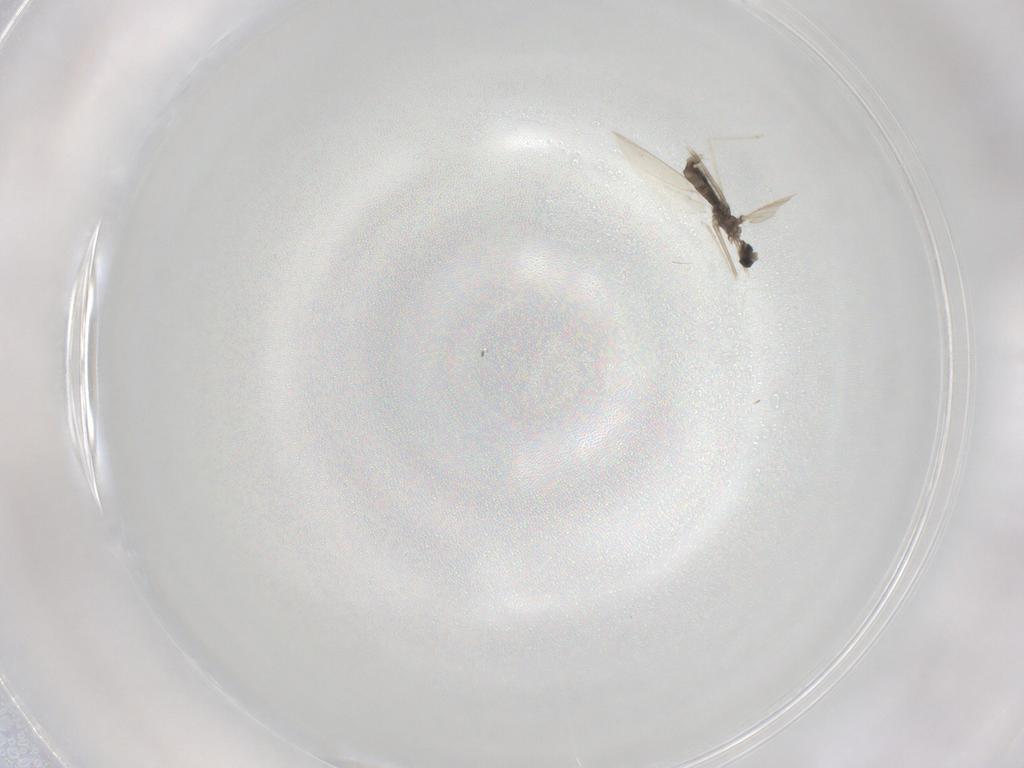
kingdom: Animalia
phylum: Arthropoda
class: Insecta
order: Diptera
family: Cecidomyiidae
